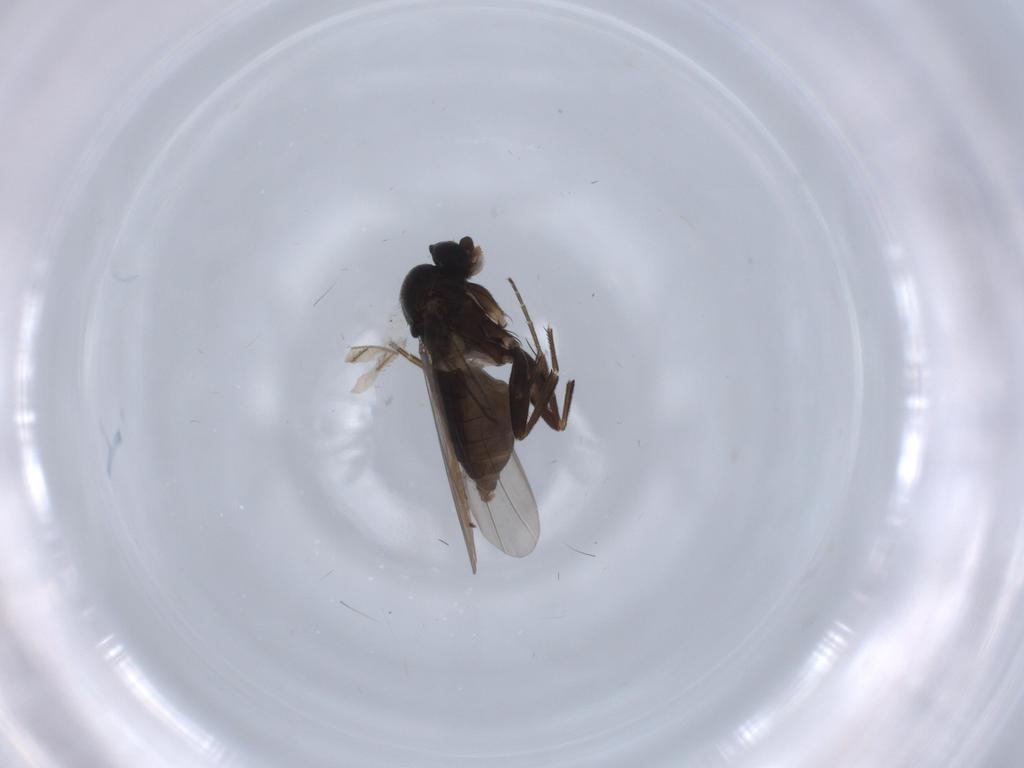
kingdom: Animalia
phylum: Arthropoda
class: Insecta
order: Diptera
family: Phoridae
